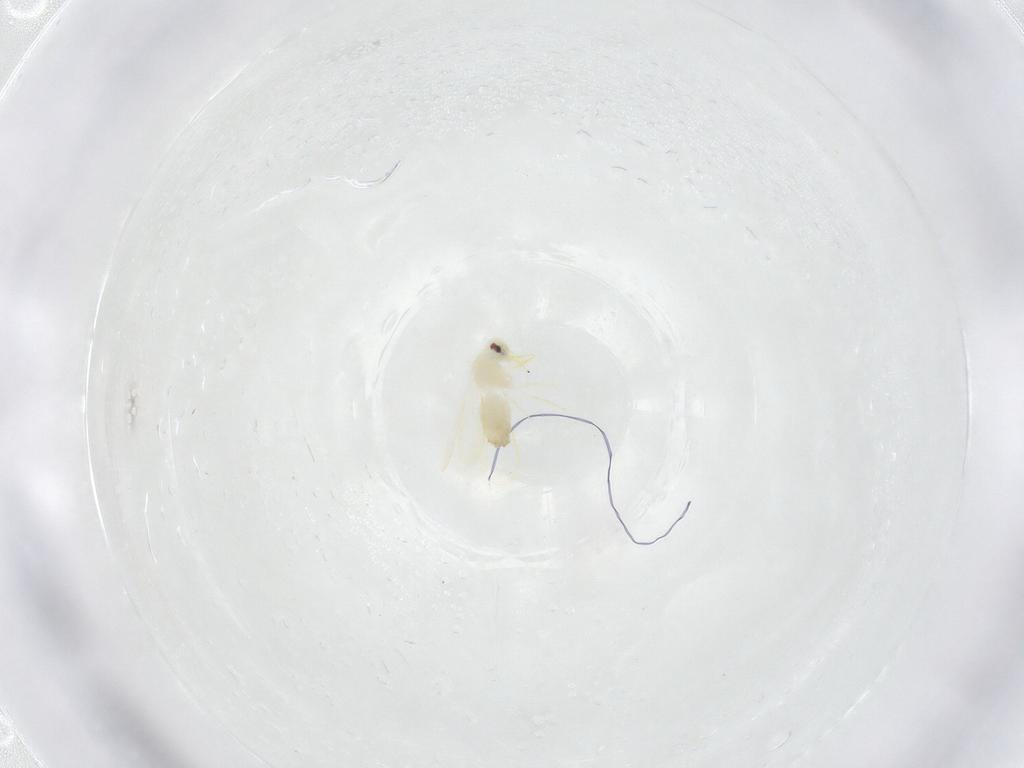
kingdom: Animalia
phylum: Arthropoda
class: Insecta
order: Hemiptera
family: Aleyrodidae
